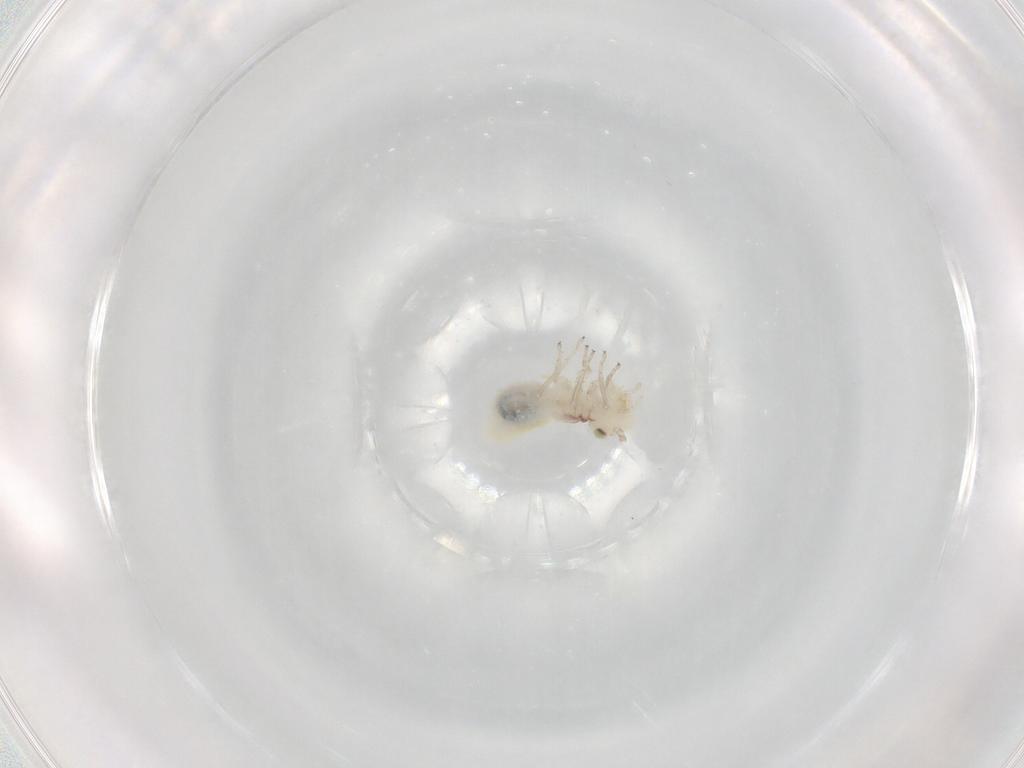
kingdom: Animalia
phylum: Arthropoda
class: Insecta
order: Psocodea
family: Caeciliusidae
